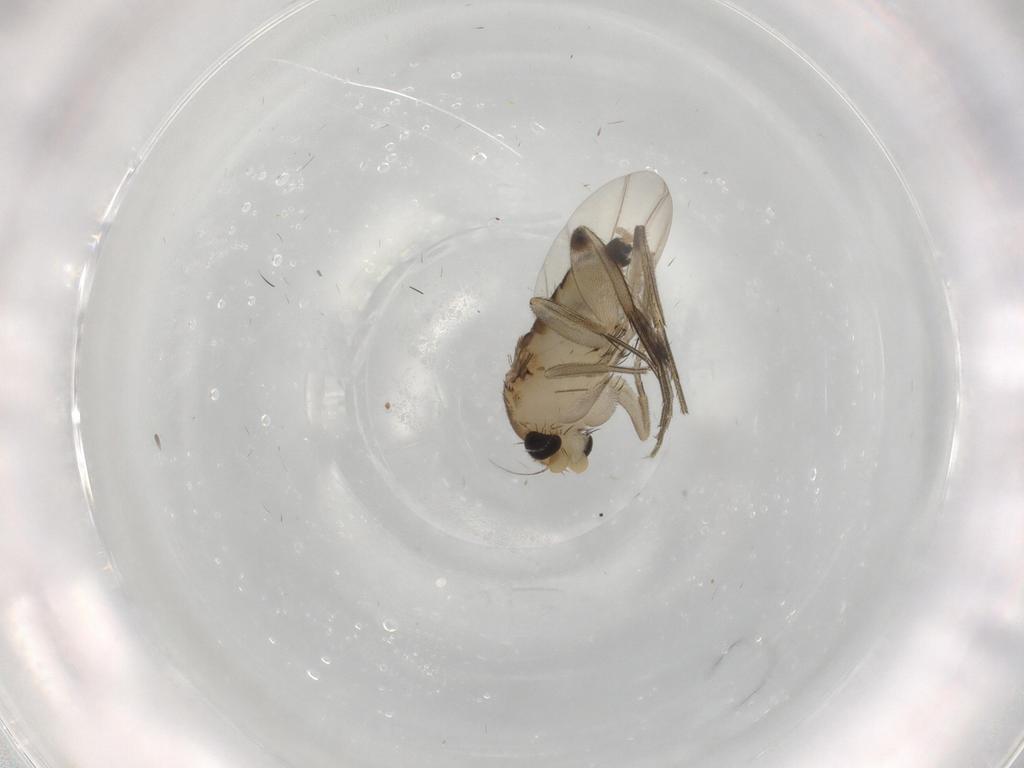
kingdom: Animalia
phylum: Arthropoda
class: Insecta
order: Diptera
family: Phoridae
